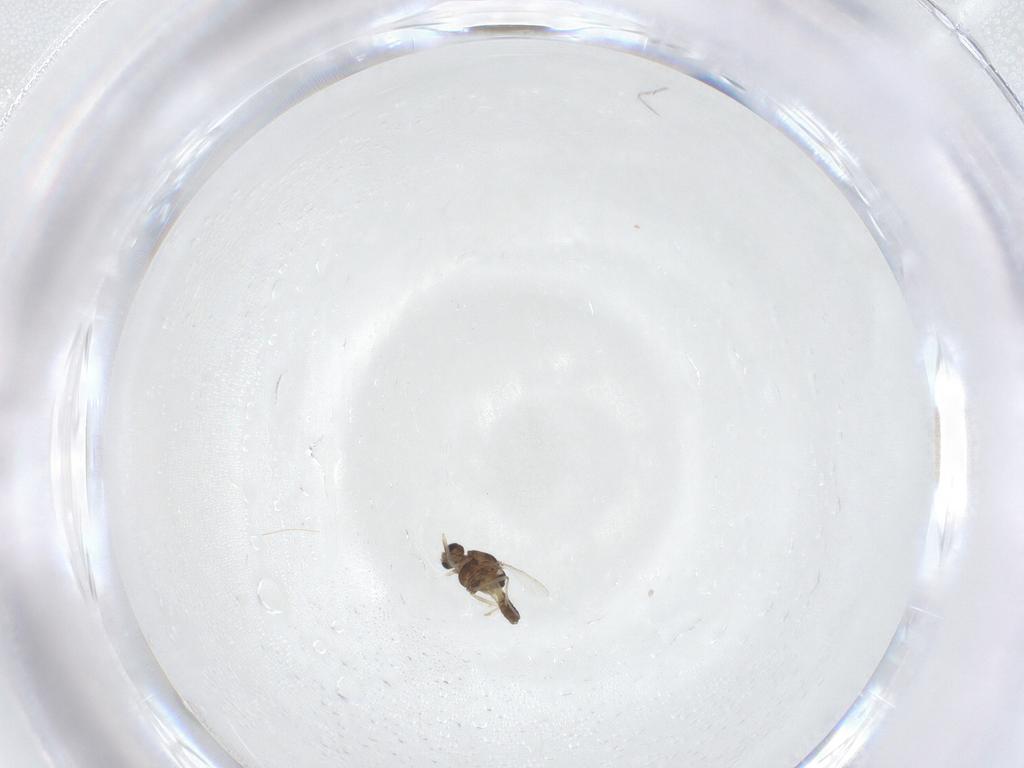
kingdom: Animalia
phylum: Arthropoda
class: Insecta
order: Diptera
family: Chironomidae
